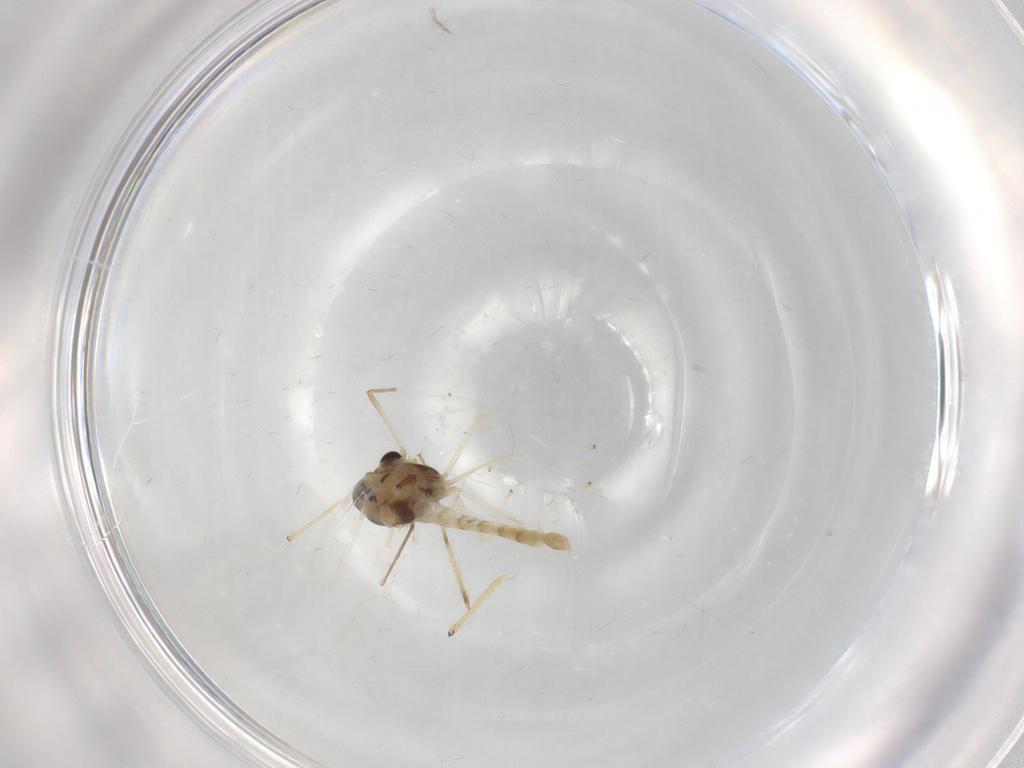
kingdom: Animalia
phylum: Arthropoda
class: Insecta
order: Diptera
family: Chironomidae
